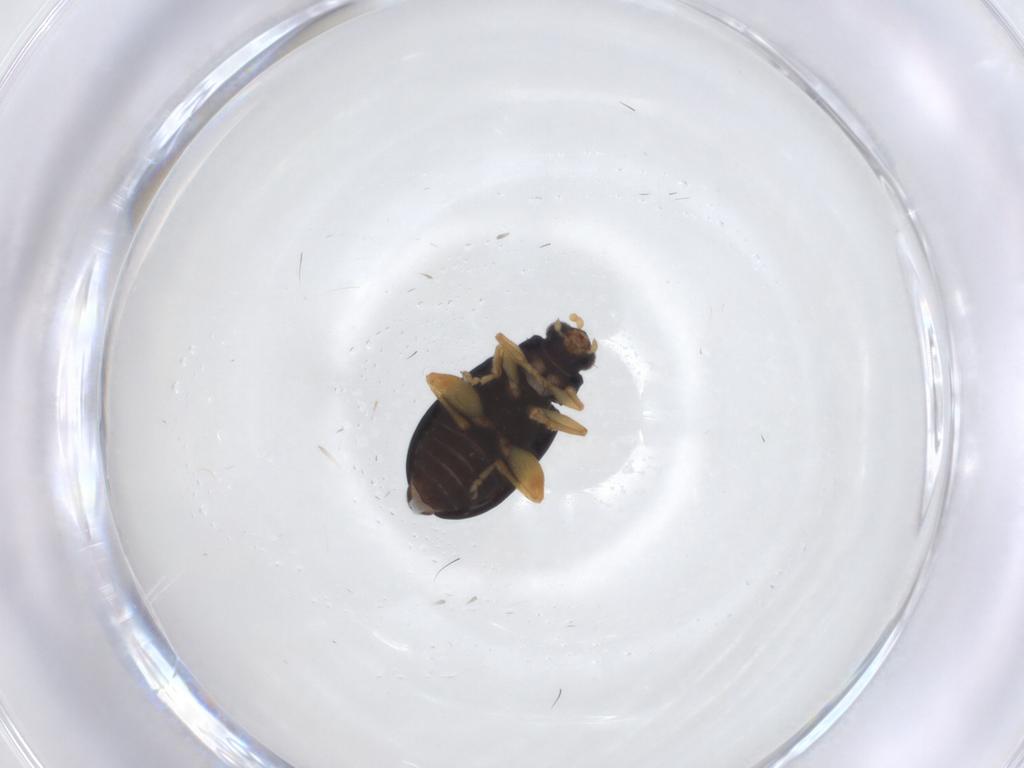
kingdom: Animalia
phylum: Arthropoda
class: Insecta
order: Coleoptera
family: Chrysomelidae
